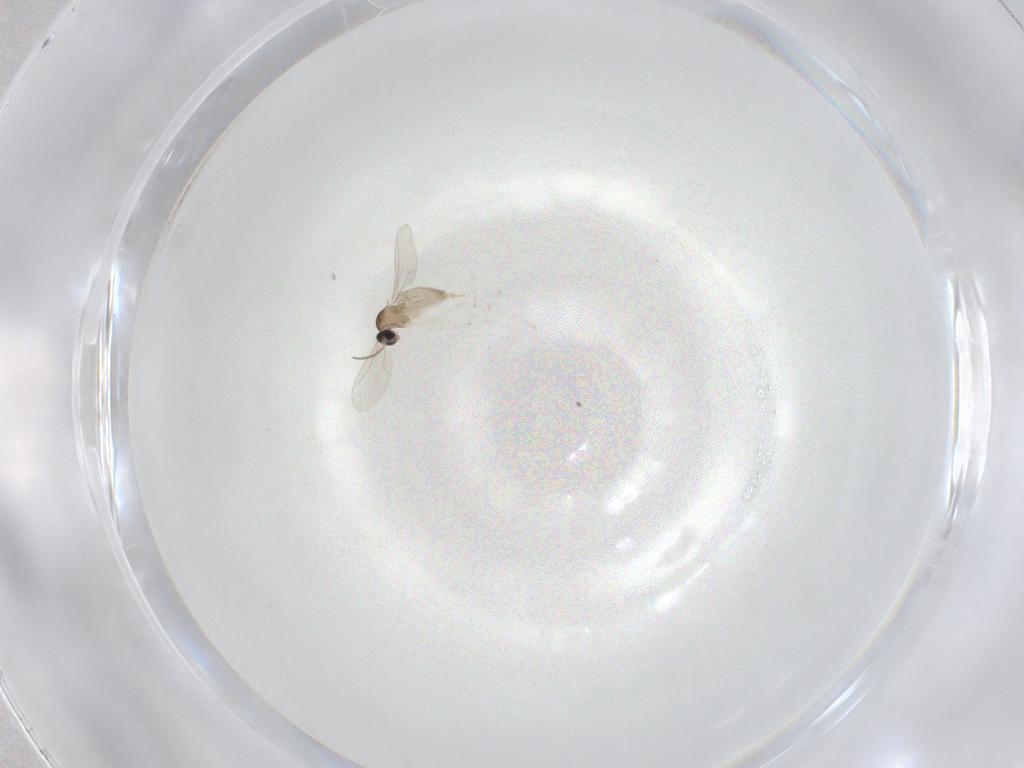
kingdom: Animalia
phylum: Arthropoda
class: Insecta
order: Diptera
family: Cecidomyiidae
